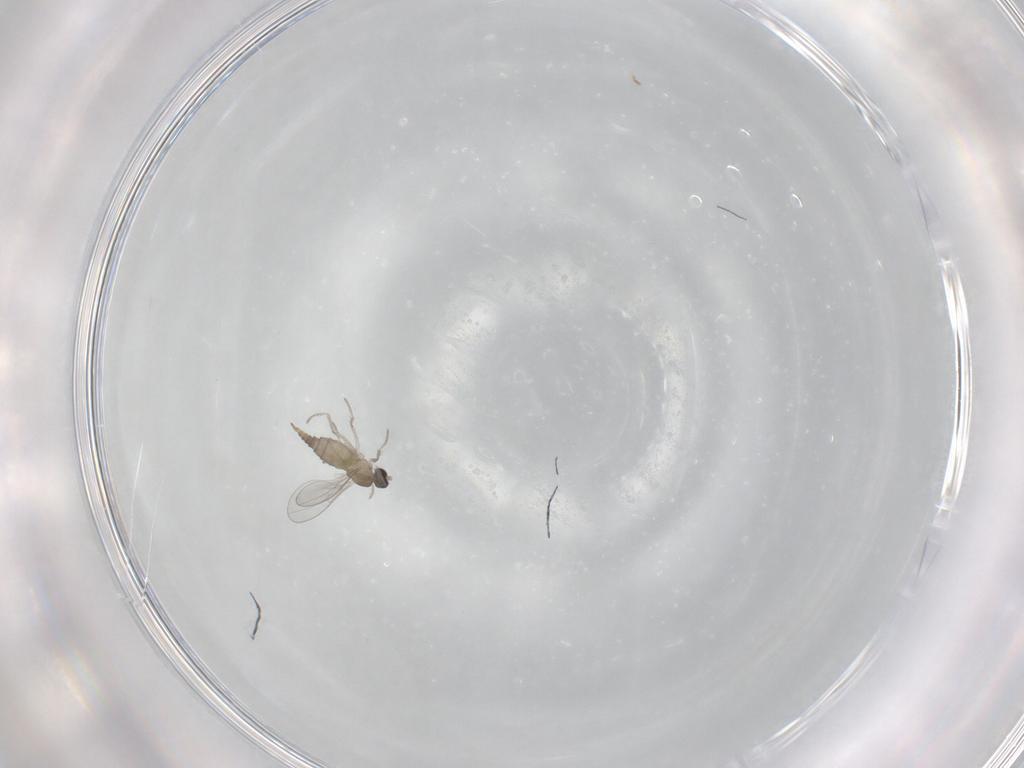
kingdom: Animalia
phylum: Arthropoda
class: Insecta
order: Diptera
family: Cecidomyiidae
